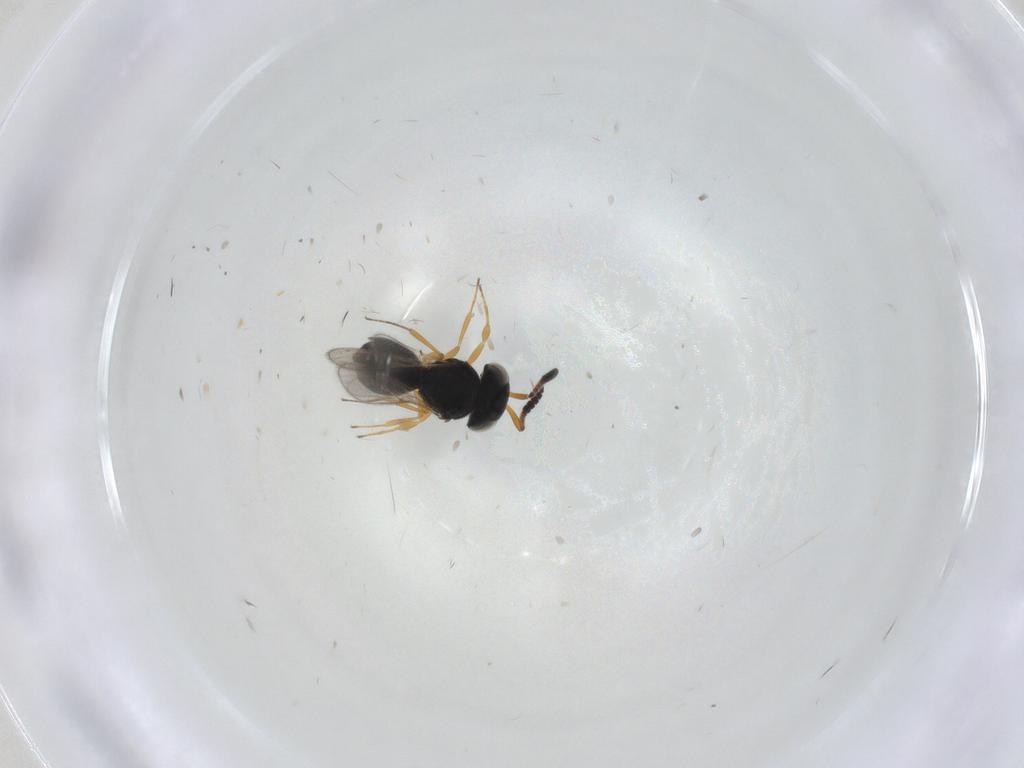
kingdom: Animalia
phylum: Arthropoda
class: Insecta
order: Hymenoptera
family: Scelionidae
